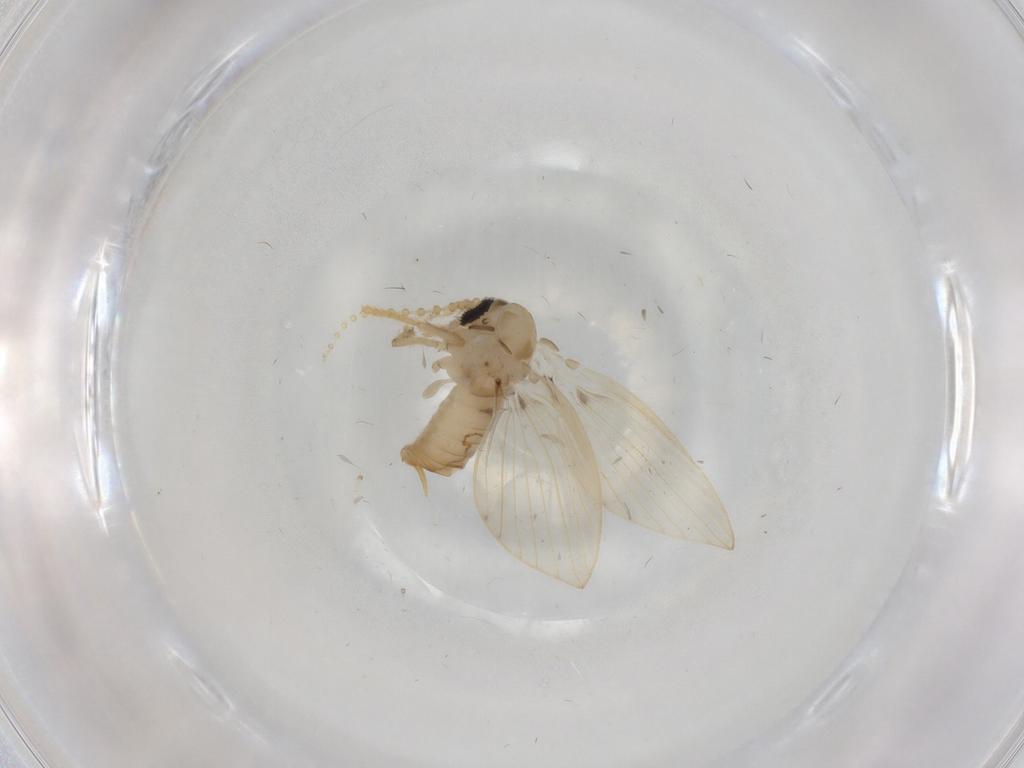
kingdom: Animalia
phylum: Arthropoda
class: Insecta
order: Diptera
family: Psychodidae
